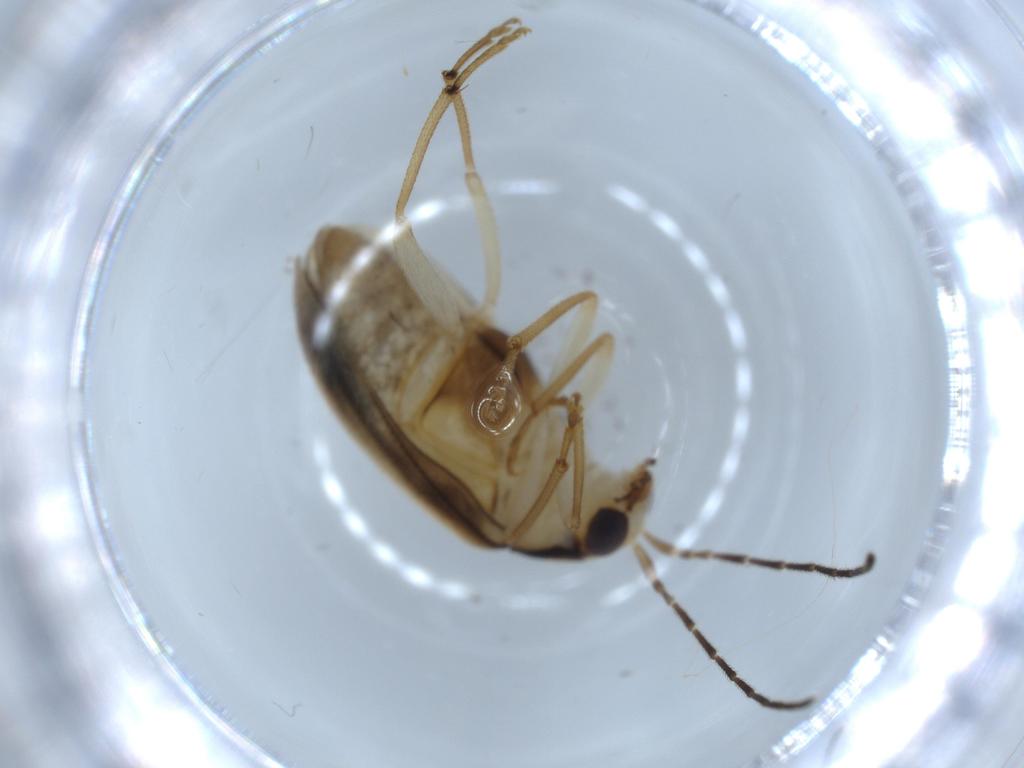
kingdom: Animalia
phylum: Arthropoda
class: Insecta
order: Coleoptera
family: Chrysomelidae
